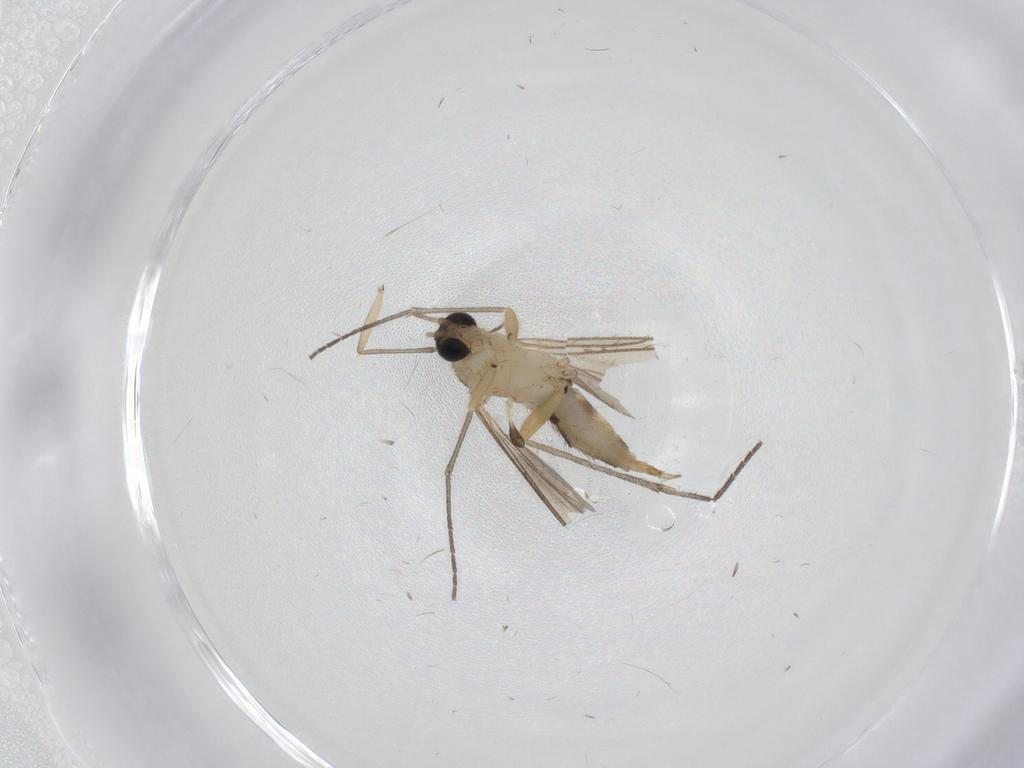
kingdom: Animalia
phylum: Arthropoda
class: Insecta
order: Diptera
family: Sciaridae
